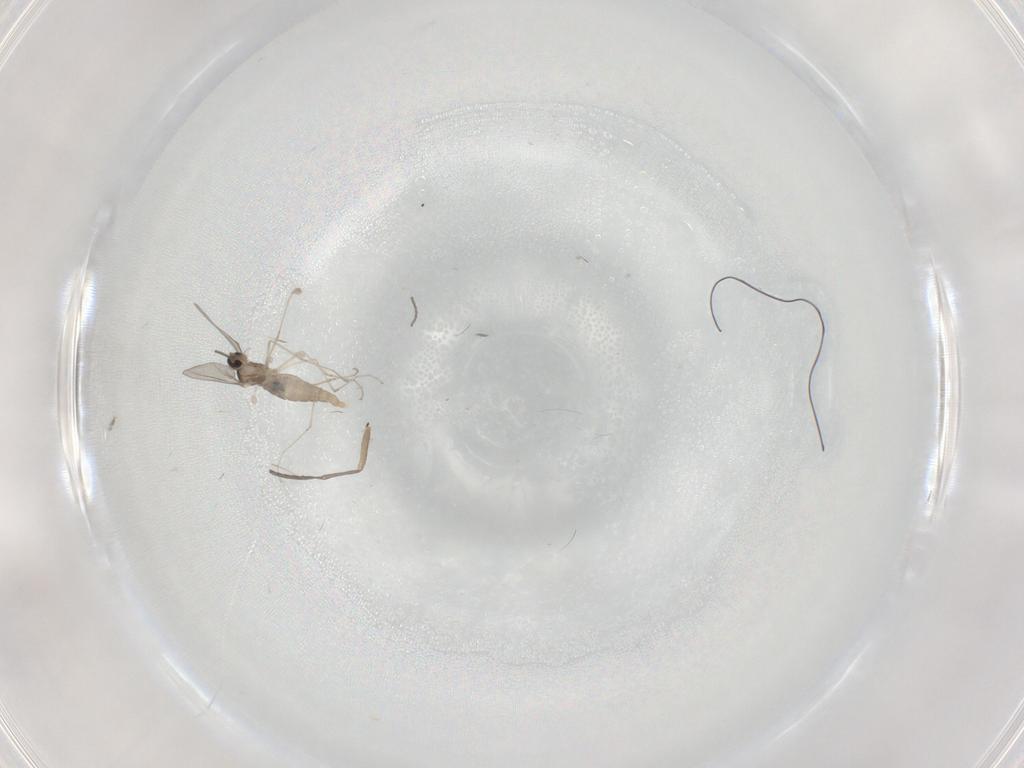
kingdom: Animalia
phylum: Arthropoda
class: Insecta
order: Diptera
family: Sciaridae
